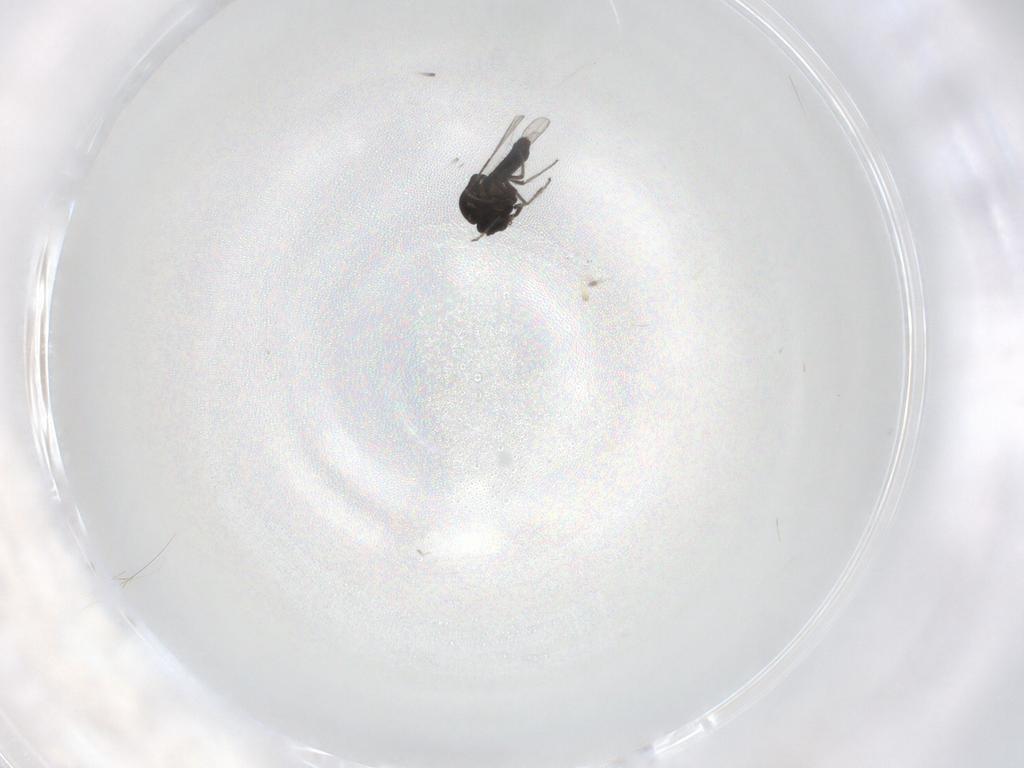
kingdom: Animalia
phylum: Arthropoda
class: Insecta
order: Diptera
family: Ceratopogonidae
